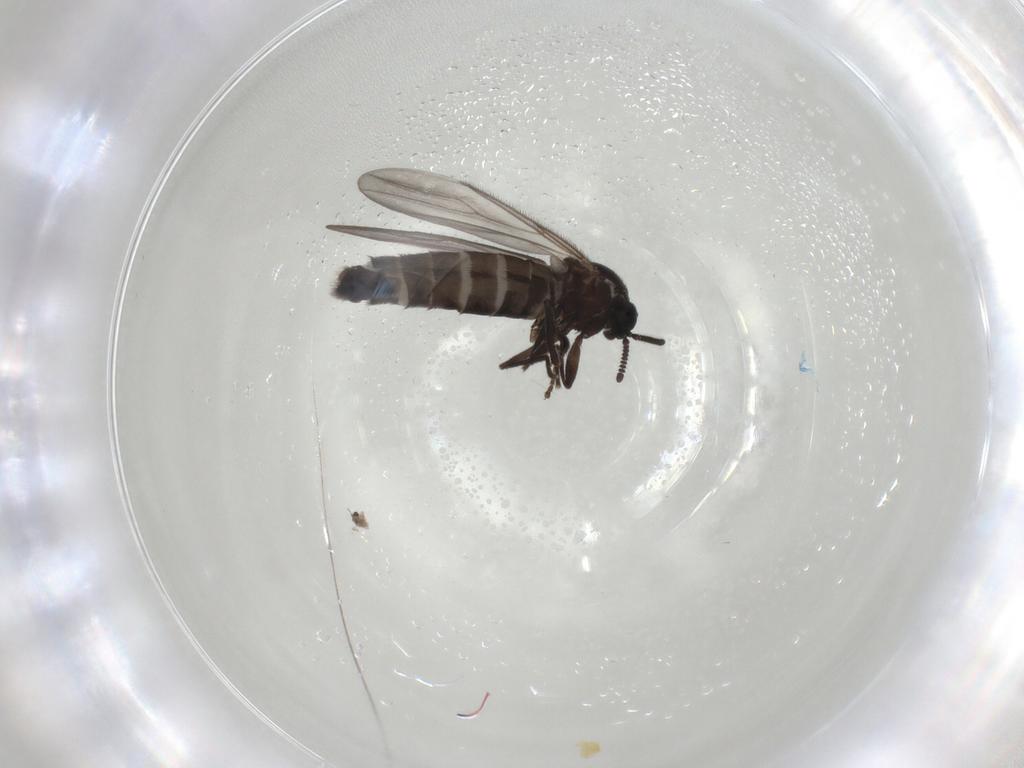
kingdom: Animalia
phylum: Arthropoda
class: Insecta
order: Diptera
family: Scatopsidae
